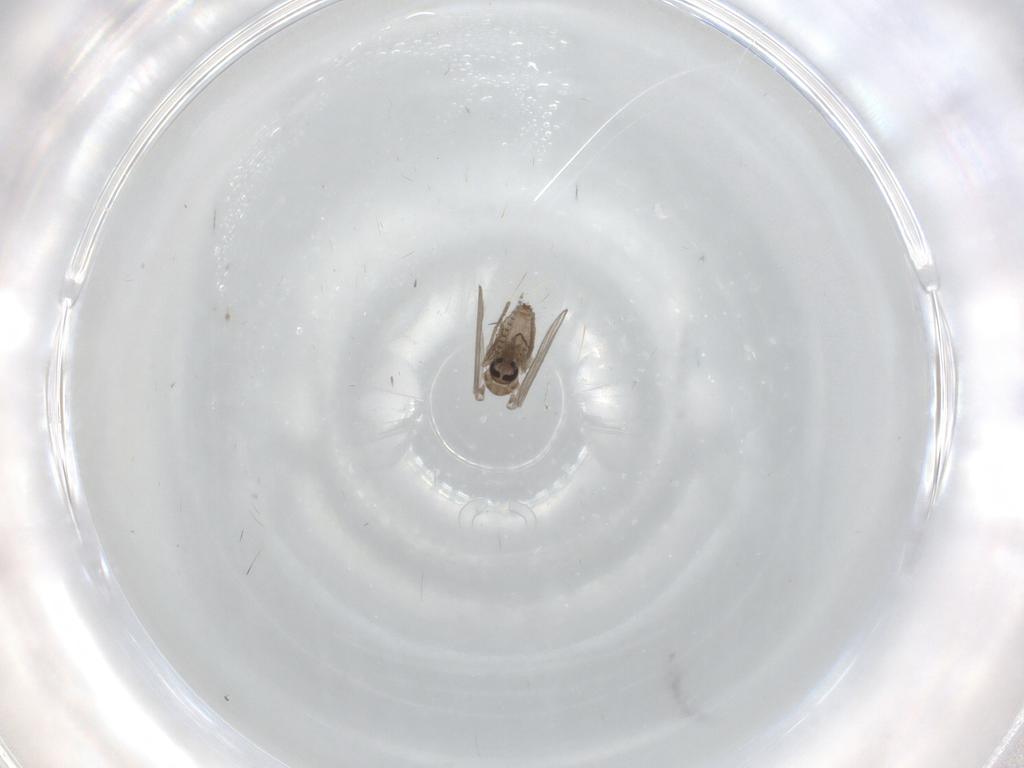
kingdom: Animalia
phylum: Arthropoda
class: Insecta
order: Diptera
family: Psychodidae
